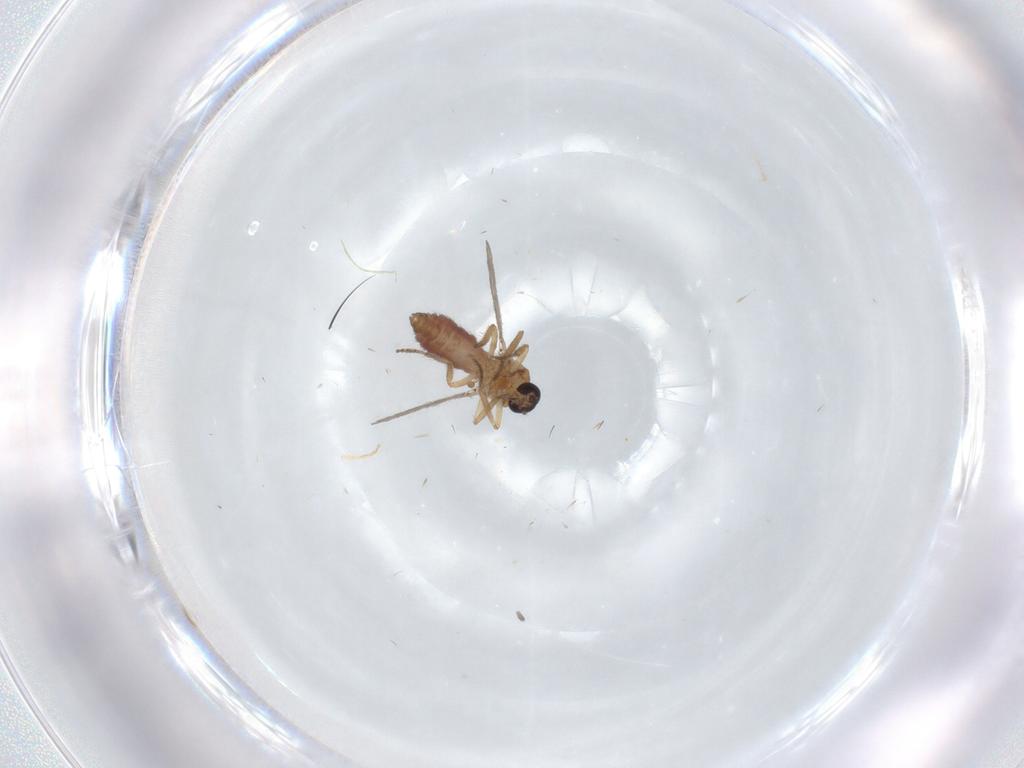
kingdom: Animalia
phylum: Arthropoda
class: Insecta
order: Diptera
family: Ceratopogonidae
